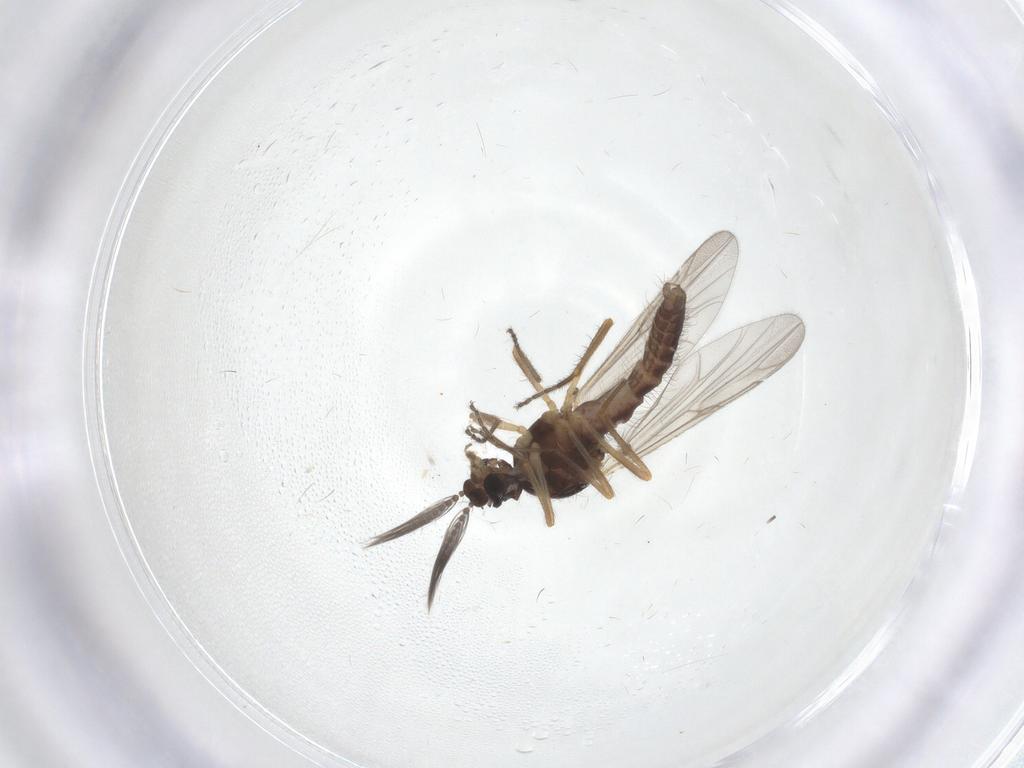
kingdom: Animalia
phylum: Arthropoda
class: Insecta
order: Diptera
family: Ceratopogonidae
